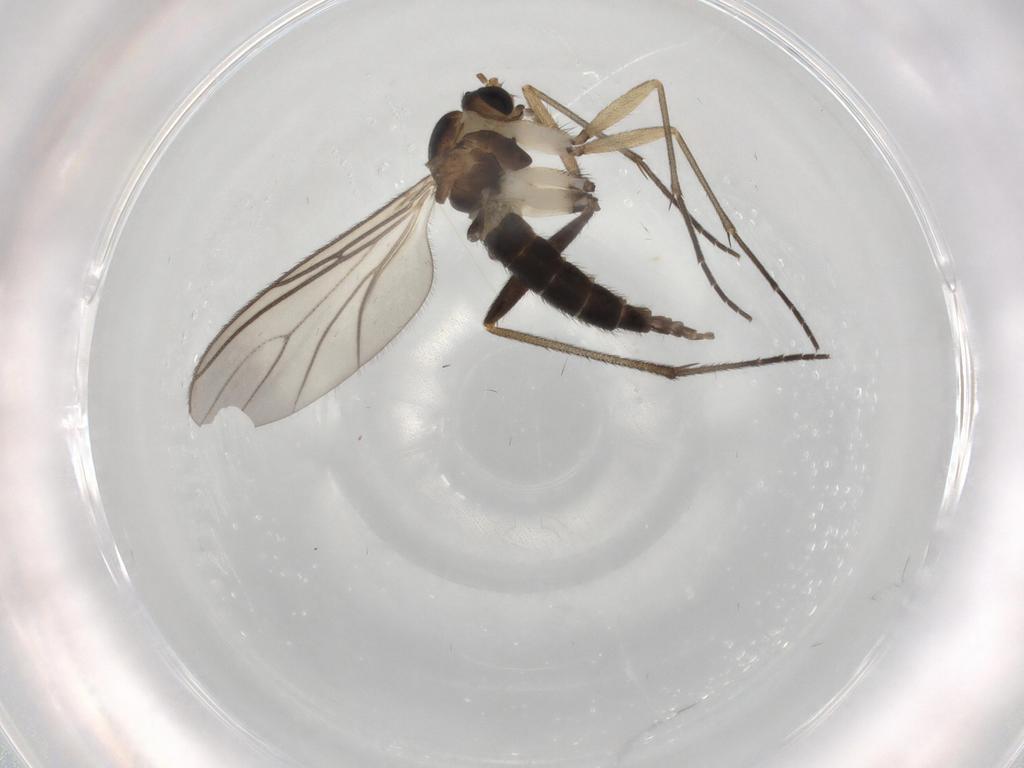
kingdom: Animalia
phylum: Arthropoda
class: Insecta
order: Diptera
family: Sciaridae
